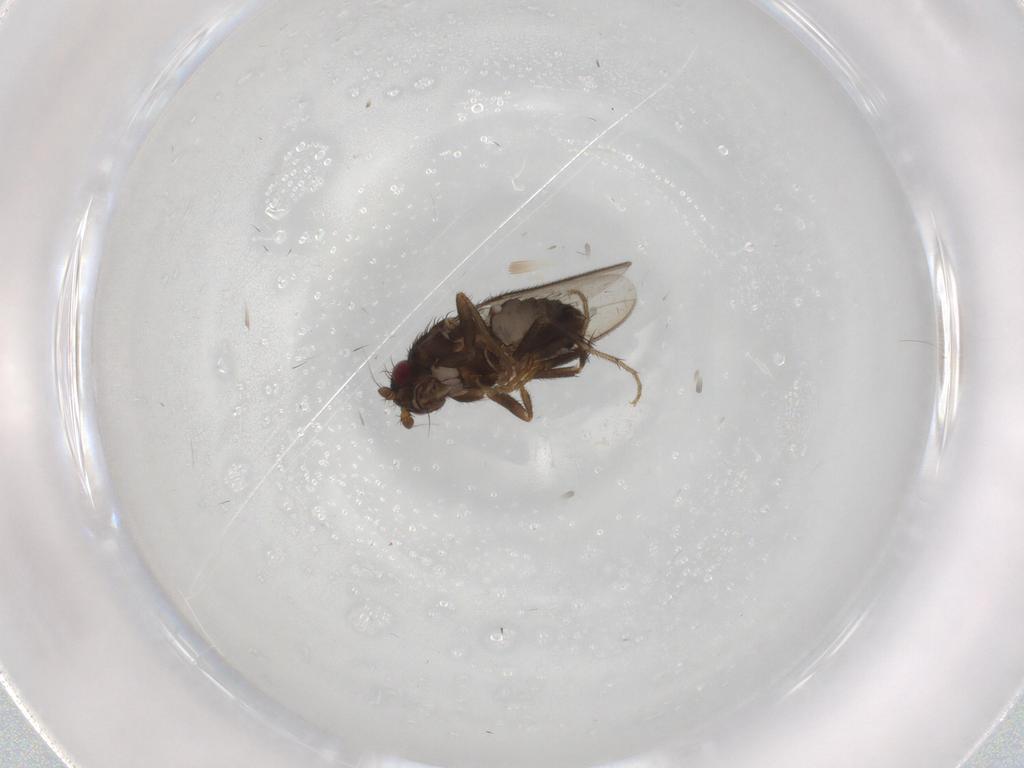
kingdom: Animalia
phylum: Arthropoda
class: Insecta
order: Diptera
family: Sphaeroceridae
